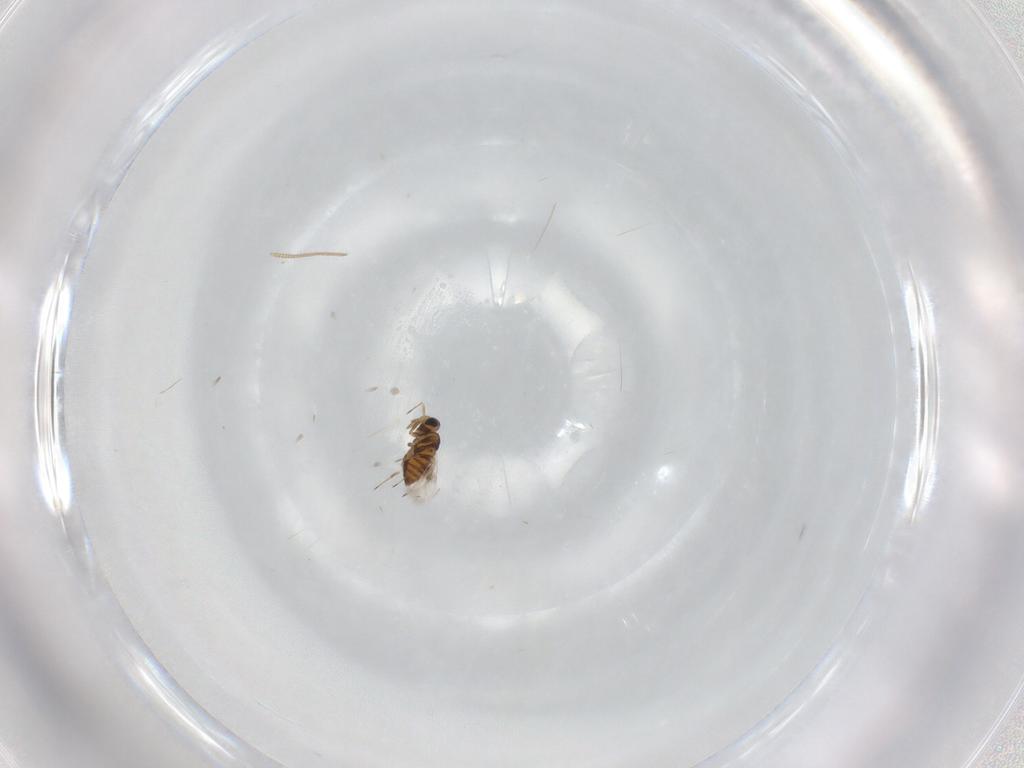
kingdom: Animalia
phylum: Arthropoda
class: Insecta
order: Hymenoptera
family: Trichogrammatidae
